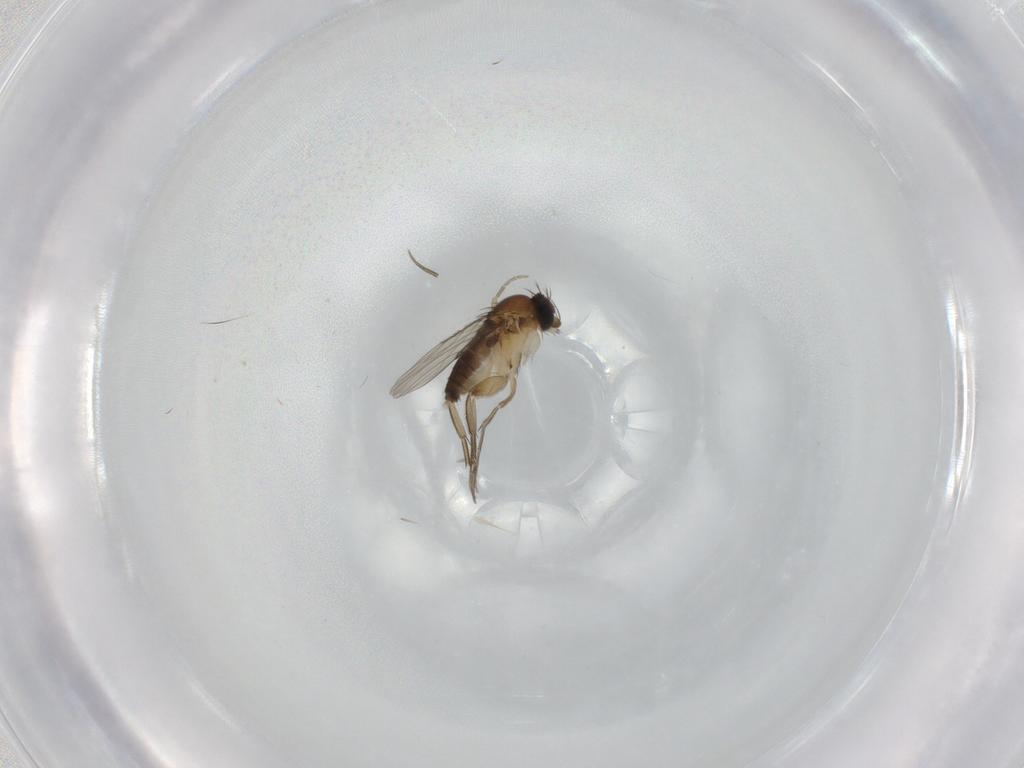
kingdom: Animalia
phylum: Arthropoda
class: Insecta
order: Diptera
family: Phoridae
